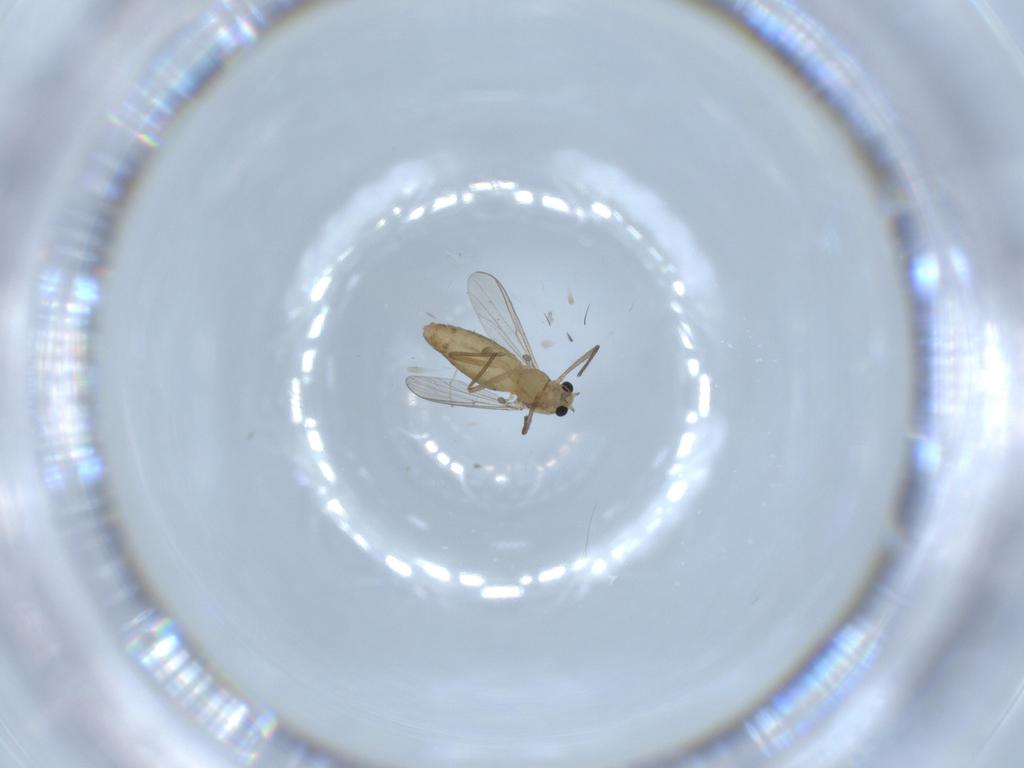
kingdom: Animalia
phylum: Arthropoda
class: Insecta
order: Diptera
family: Chironomidae
